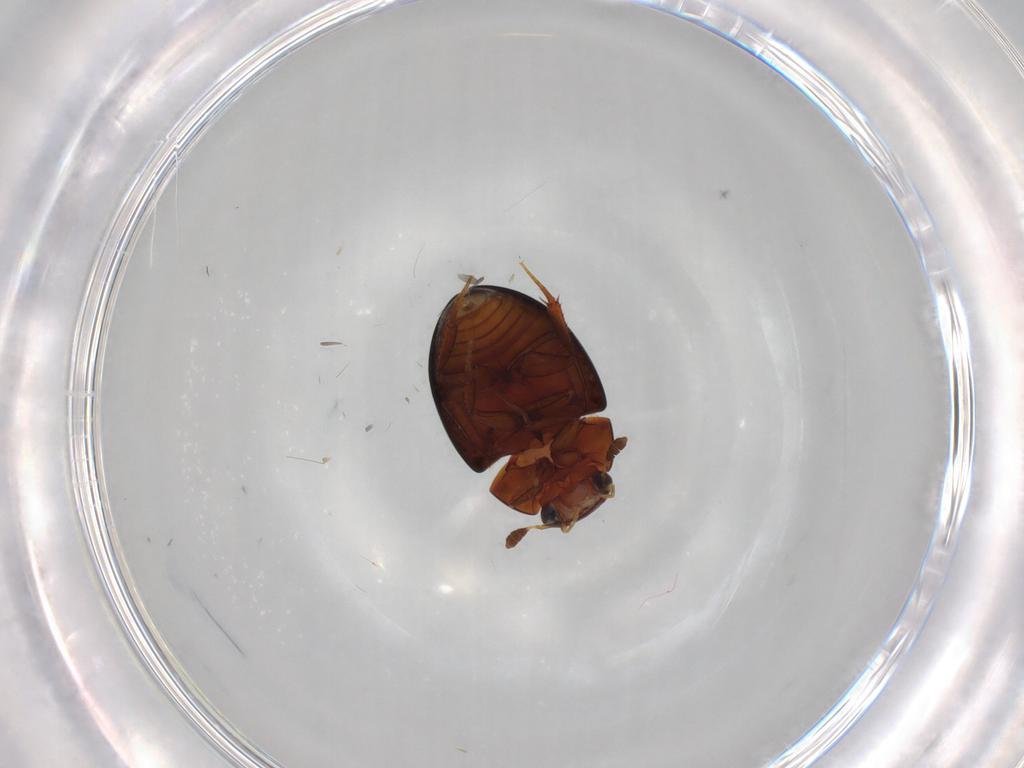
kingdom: Animalia
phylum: Arthropoda
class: Insecta
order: Coleoptera
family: Hydrophilidae
